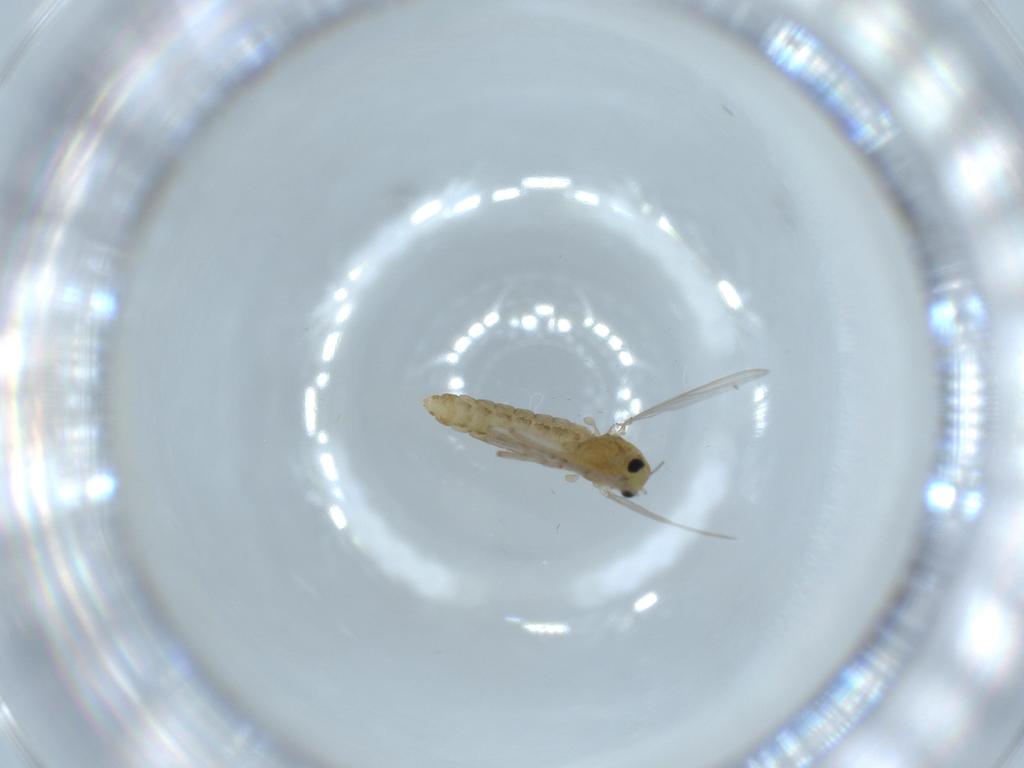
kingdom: Animalia
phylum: Arthropoda
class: Insecta
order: Diptera
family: Chironomidae
